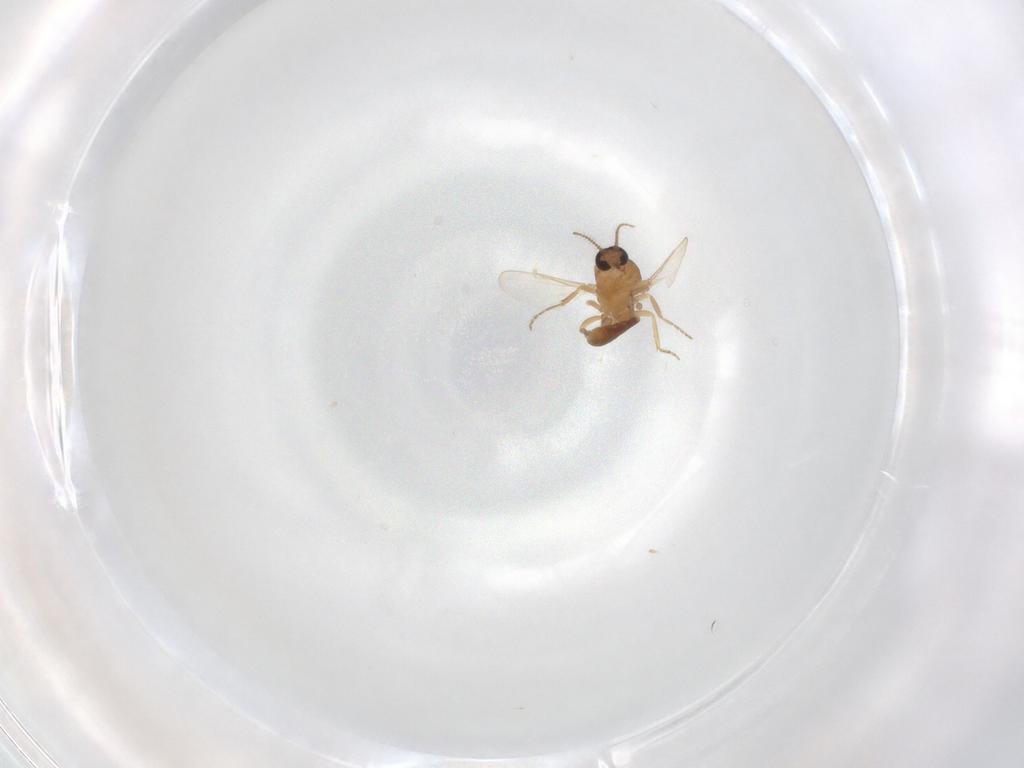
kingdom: Animalia
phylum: Arthropoda
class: Insecta
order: Diptera
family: Ceratopogonidae
